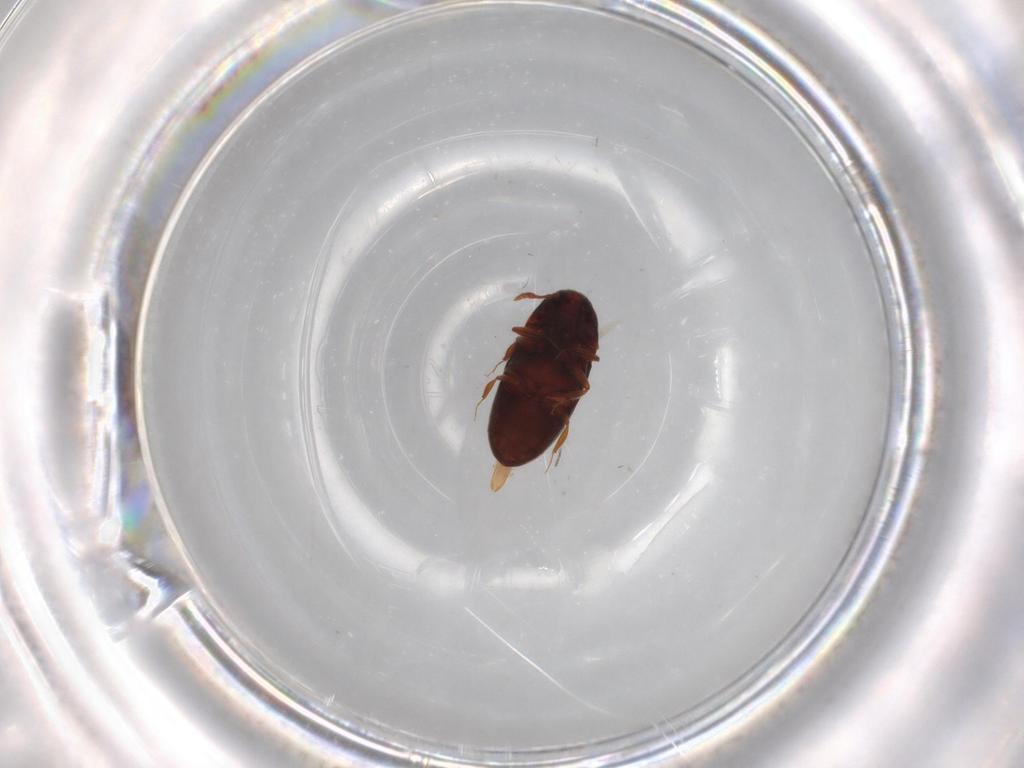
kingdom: Animalia
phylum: Arthropoda
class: Insecta
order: Coleoptera
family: Throscidae
